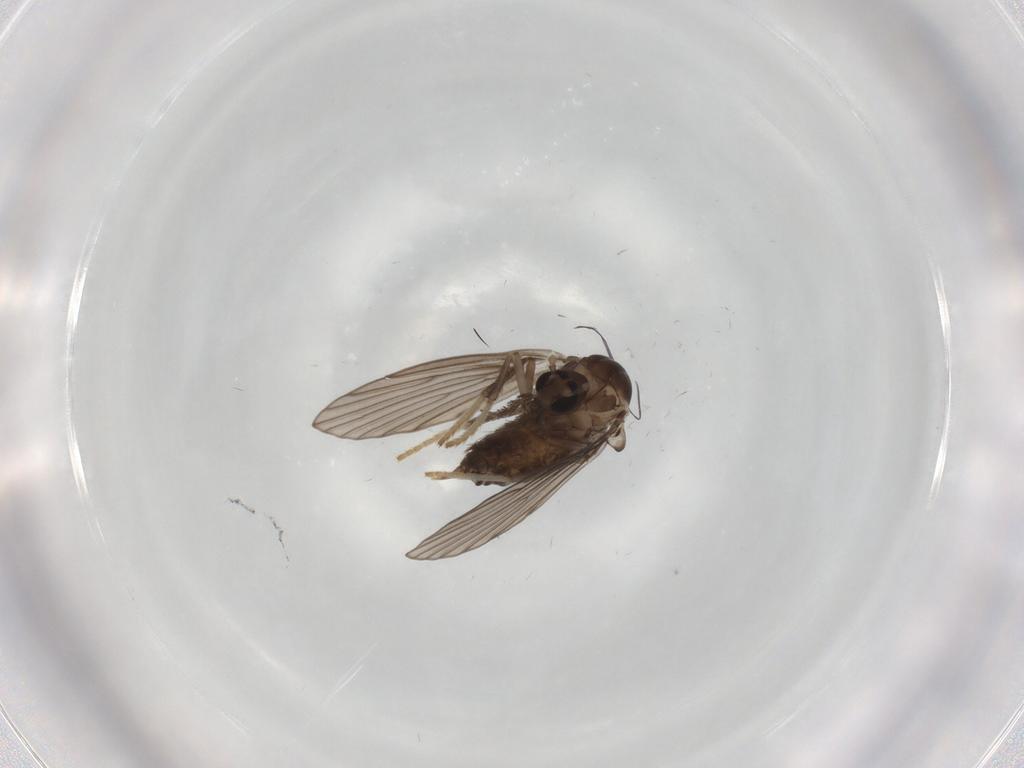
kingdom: Animalia
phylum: Arthropoda
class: Insecta
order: Diptera
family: Psychodidae
